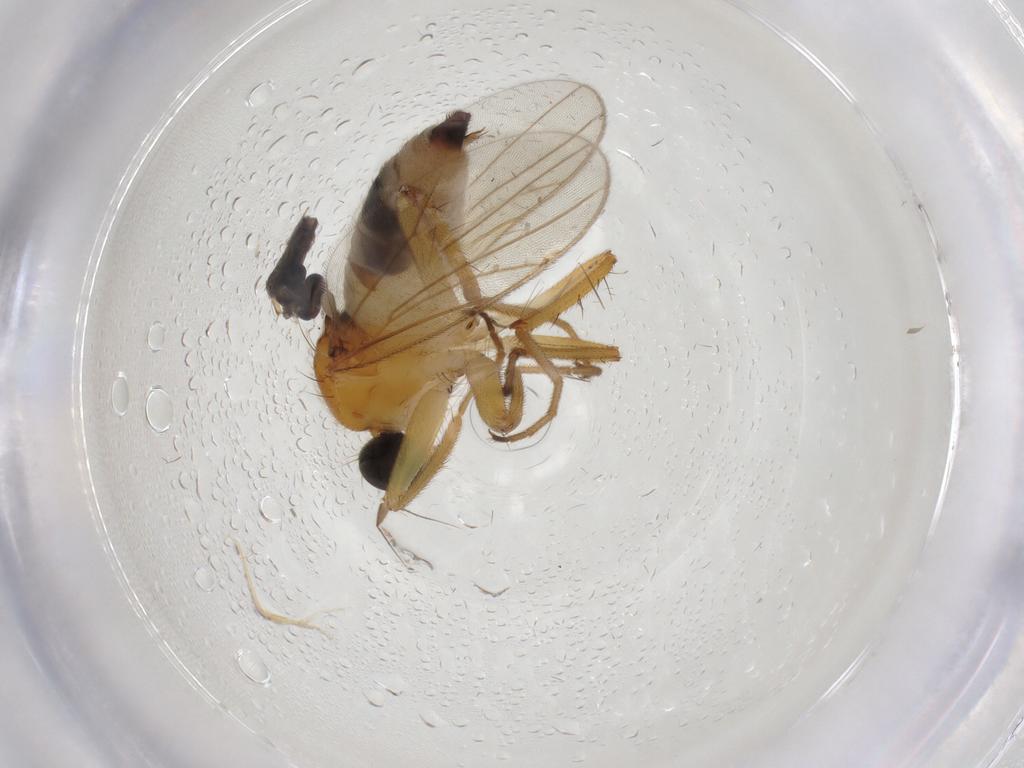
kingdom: Animalia
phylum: Arthropoda
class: Insecta
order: Diptera
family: Hybotidae
